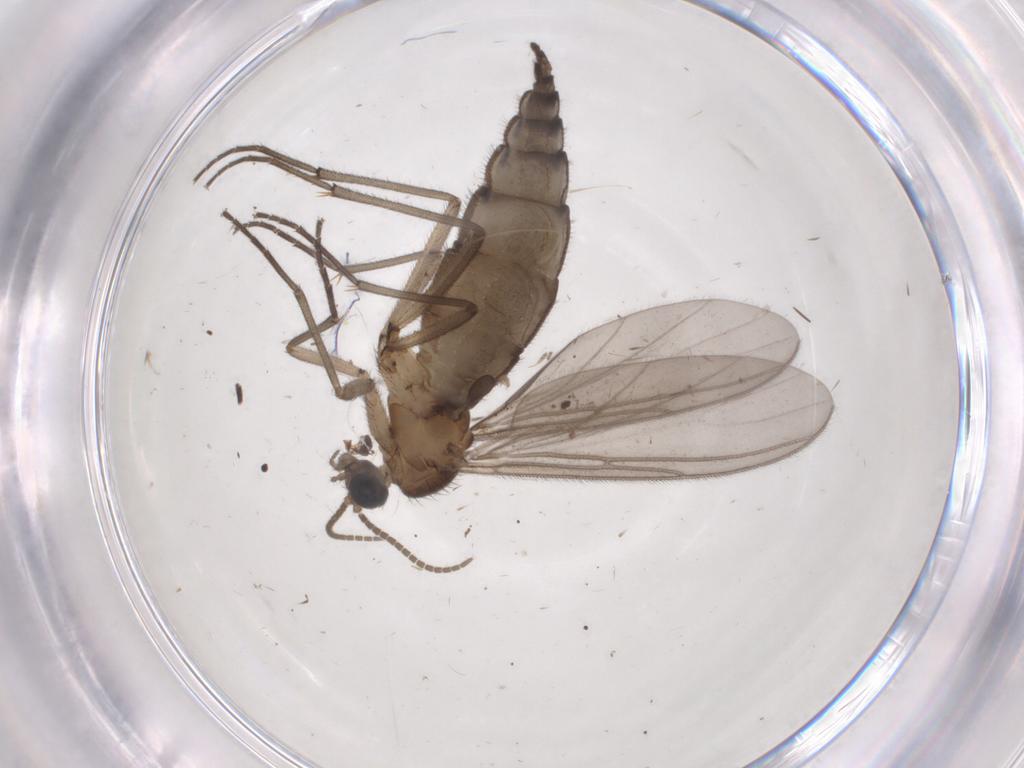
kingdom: Animalia
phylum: Arthropoda
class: Insecta
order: Diptera
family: Cecidomyiidae
